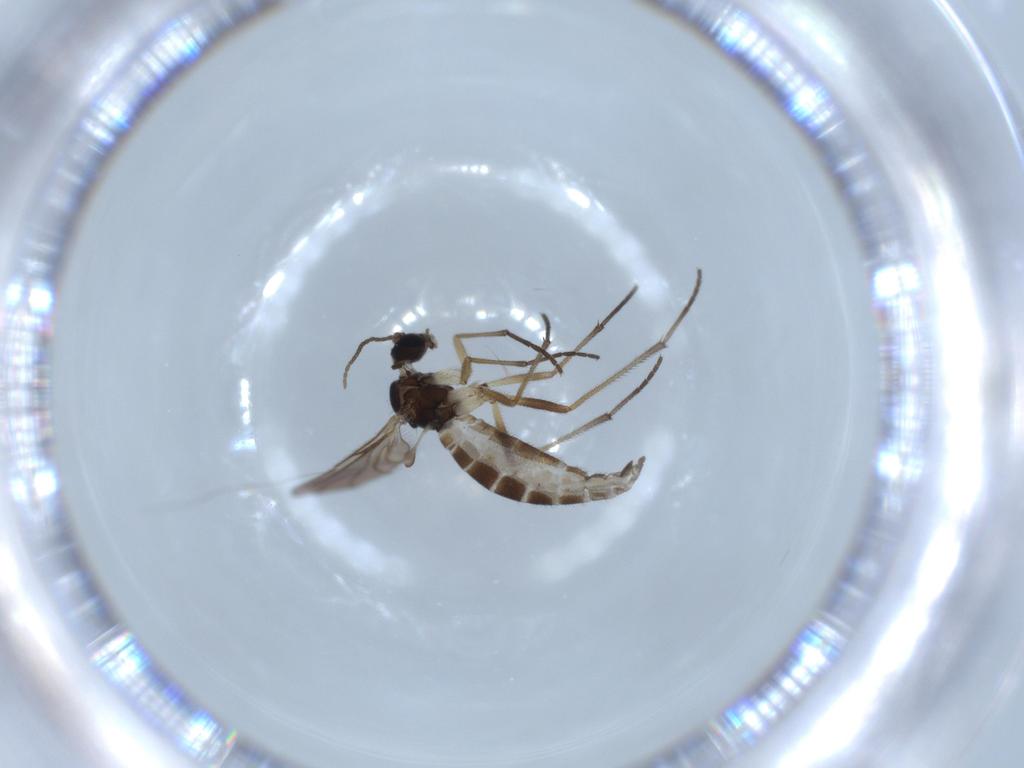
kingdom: Animalia
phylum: Arthropoda
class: Insecta
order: Diptera
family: Sciaridae
